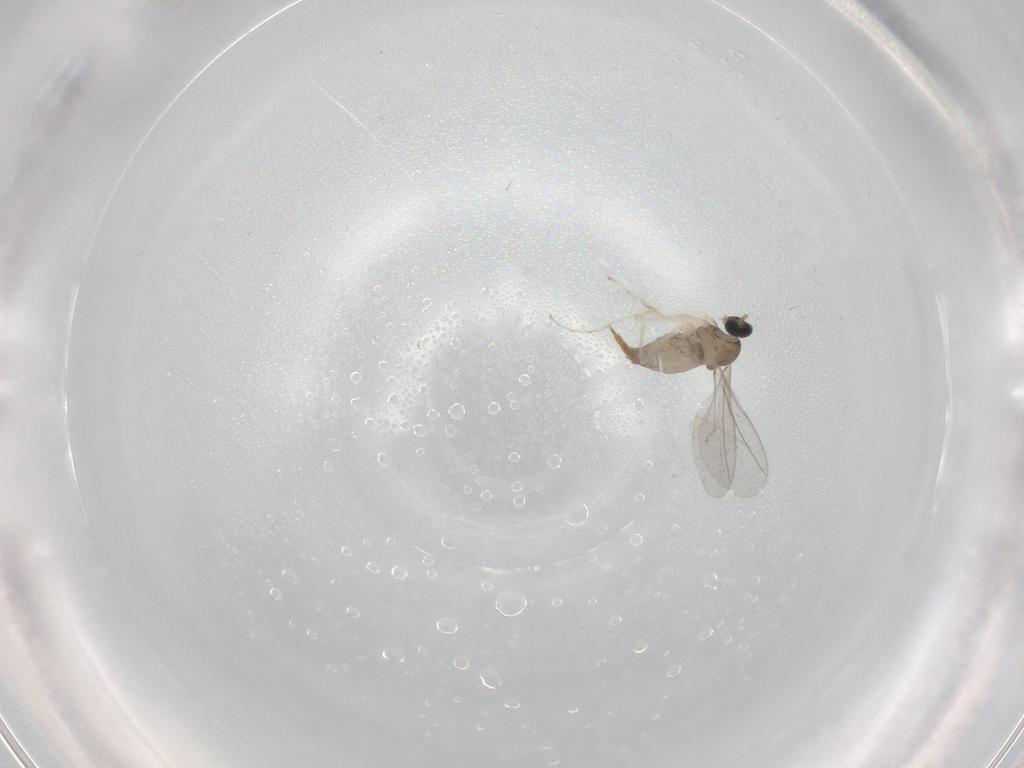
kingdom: Animalia
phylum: Arthropoda
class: Insecta
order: Diptera
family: Cecidomyiidae
